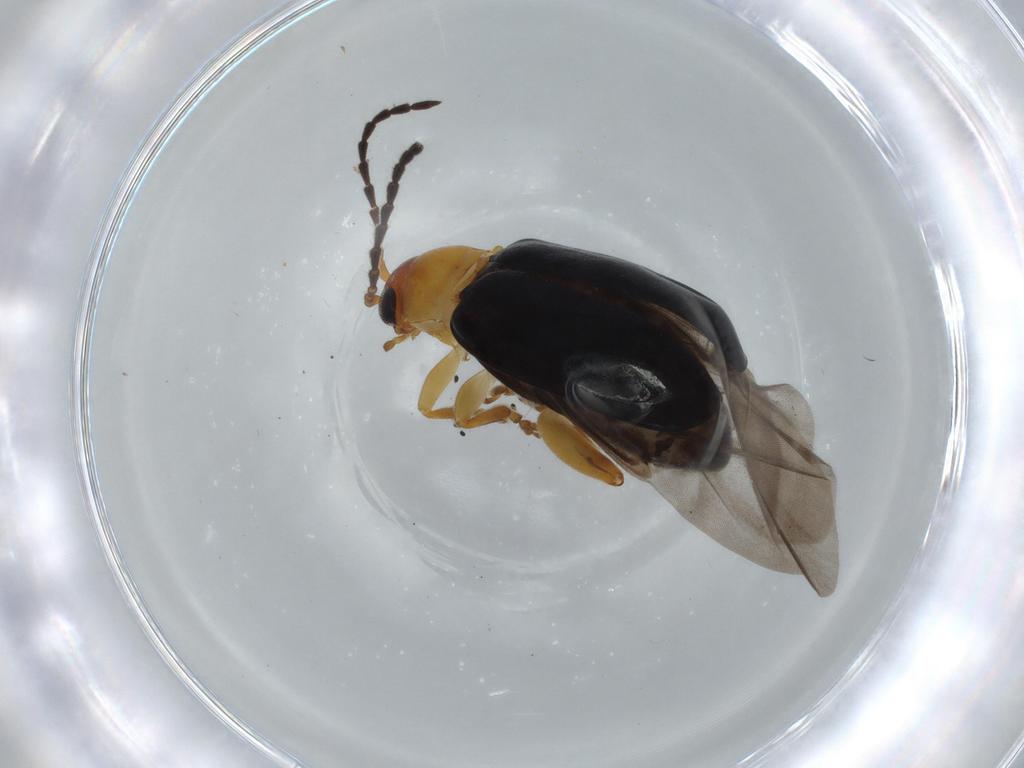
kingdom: Animalia
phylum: Arthropoda
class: Insecta
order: Coleoptera
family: Chrysomelidae
